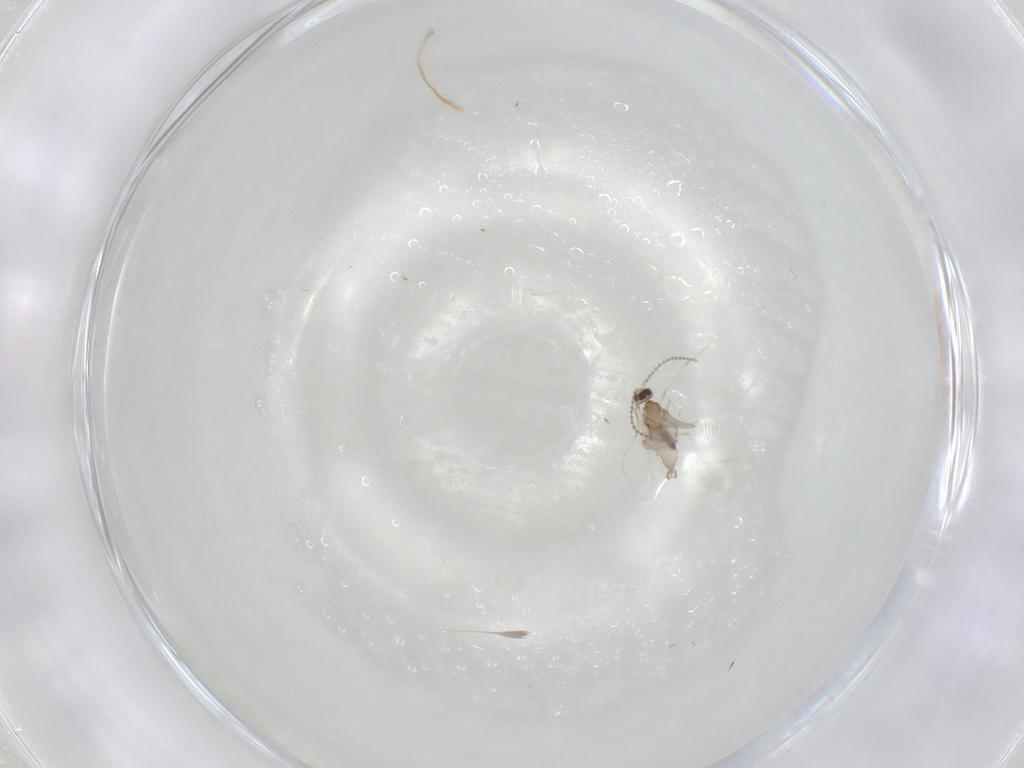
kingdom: Animalia
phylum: Arthropoda
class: Insecta
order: Diptera
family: Cecidomyiidae
